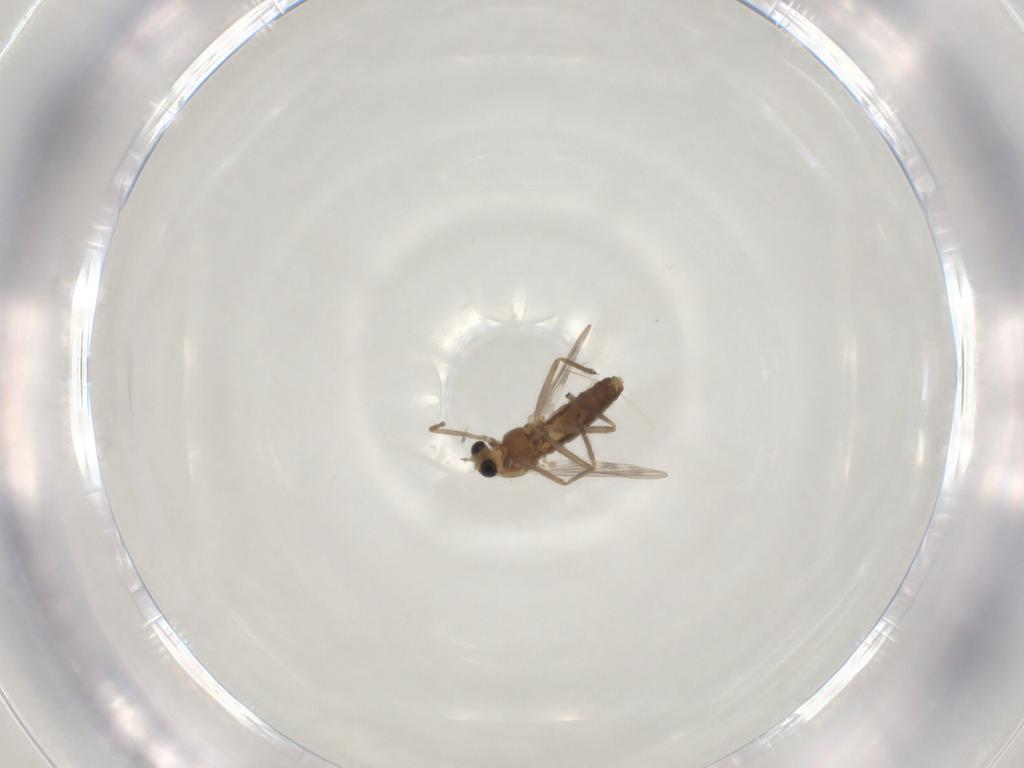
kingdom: Animalia
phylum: Arthropoda
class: Insecta
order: Diptera
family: Chironomidae
